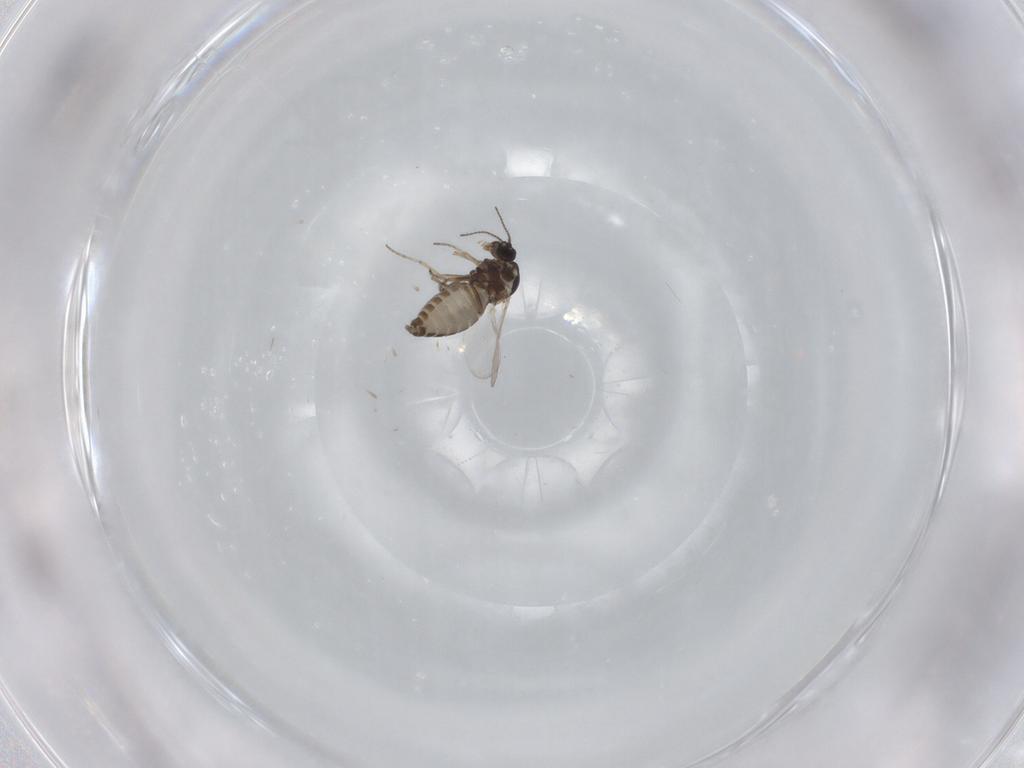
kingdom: Animalia
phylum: Arthropoda
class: Insecta
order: Diptera
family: Ceratopogonidae
